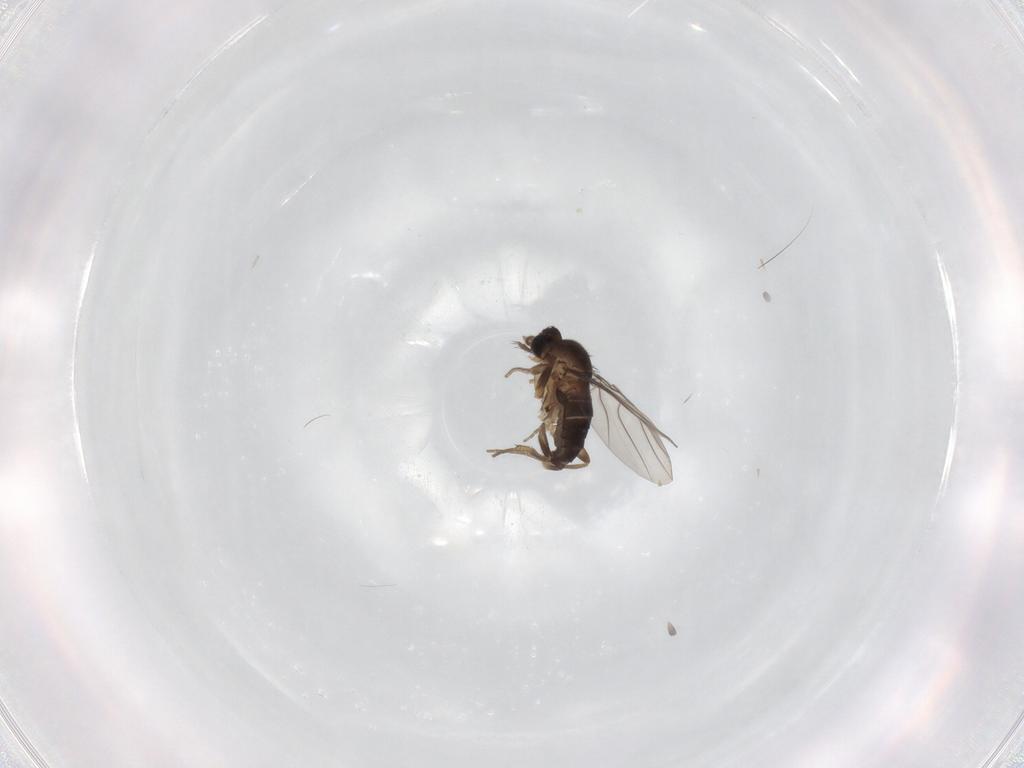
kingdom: Animalia
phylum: Arthropoda
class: Insecta
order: Diptera
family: Phoridae
